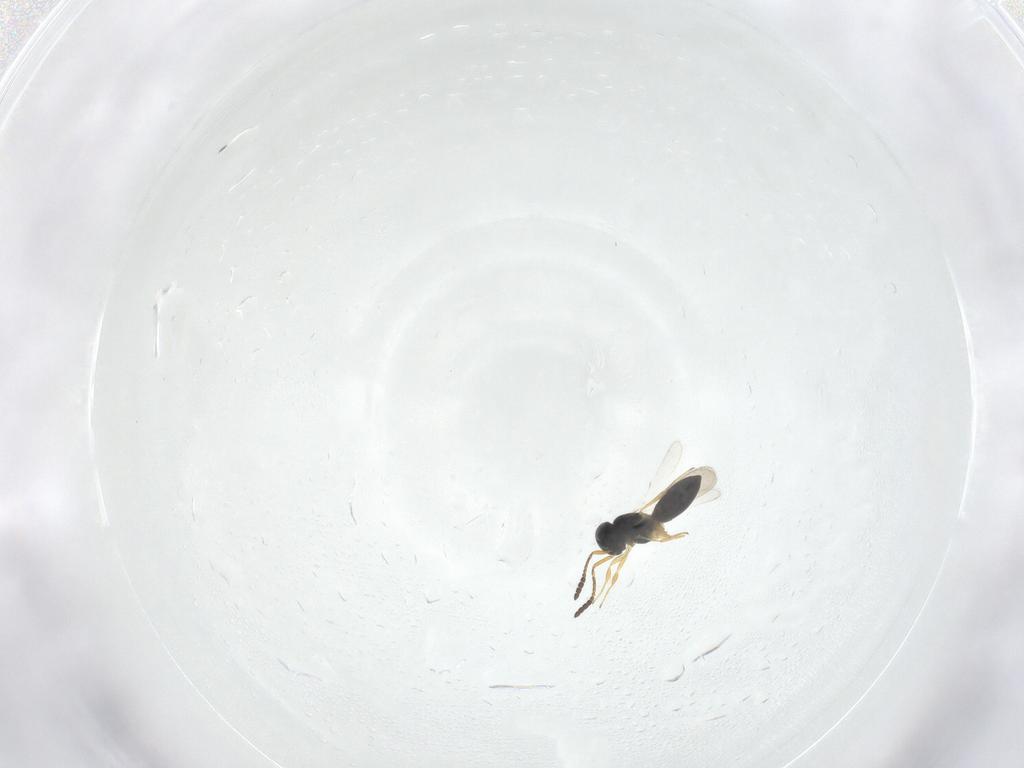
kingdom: Animalia
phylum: Arthropoda
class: Insecta
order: Hymenoptera
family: Scelionidae
